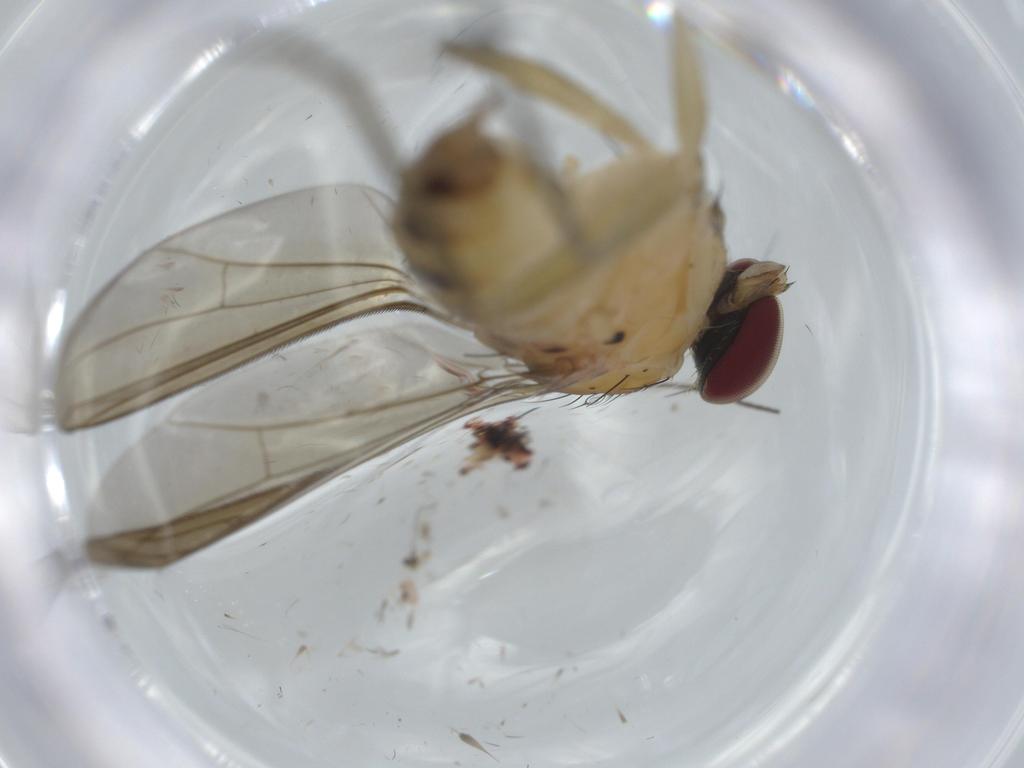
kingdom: Animalia
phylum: Arthropoda
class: Insecta
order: Diptera
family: Dolichopodidae
